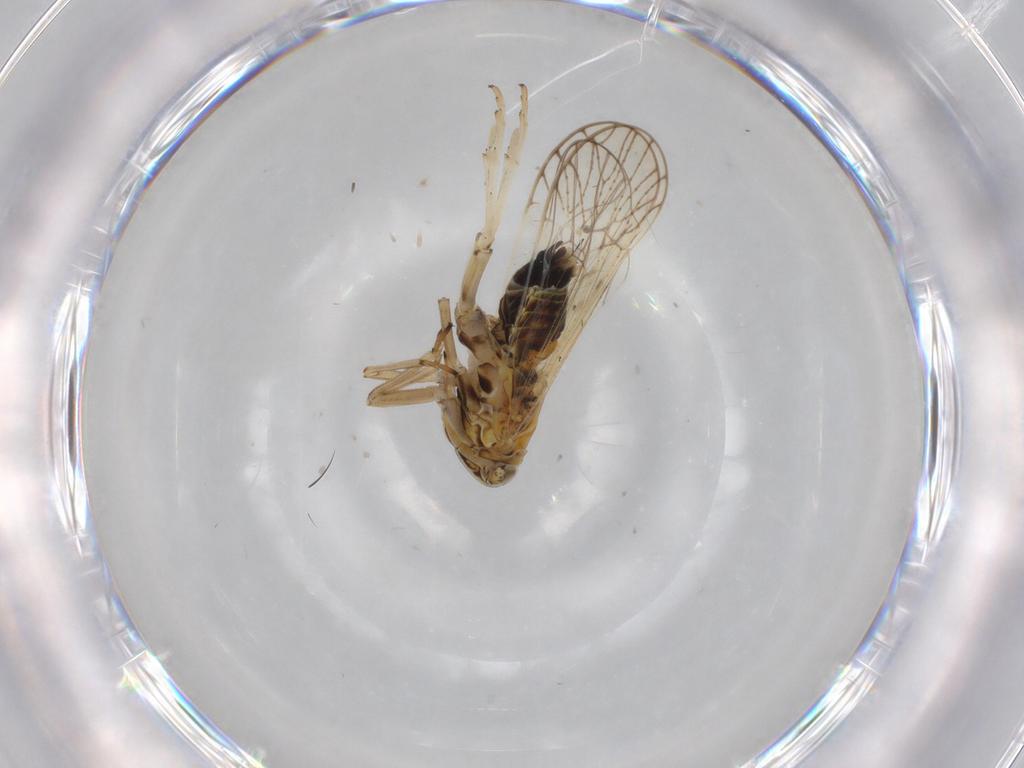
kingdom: Animalia
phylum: Arthropoda
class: Insecta
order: Hemiptera
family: Delphacidae
